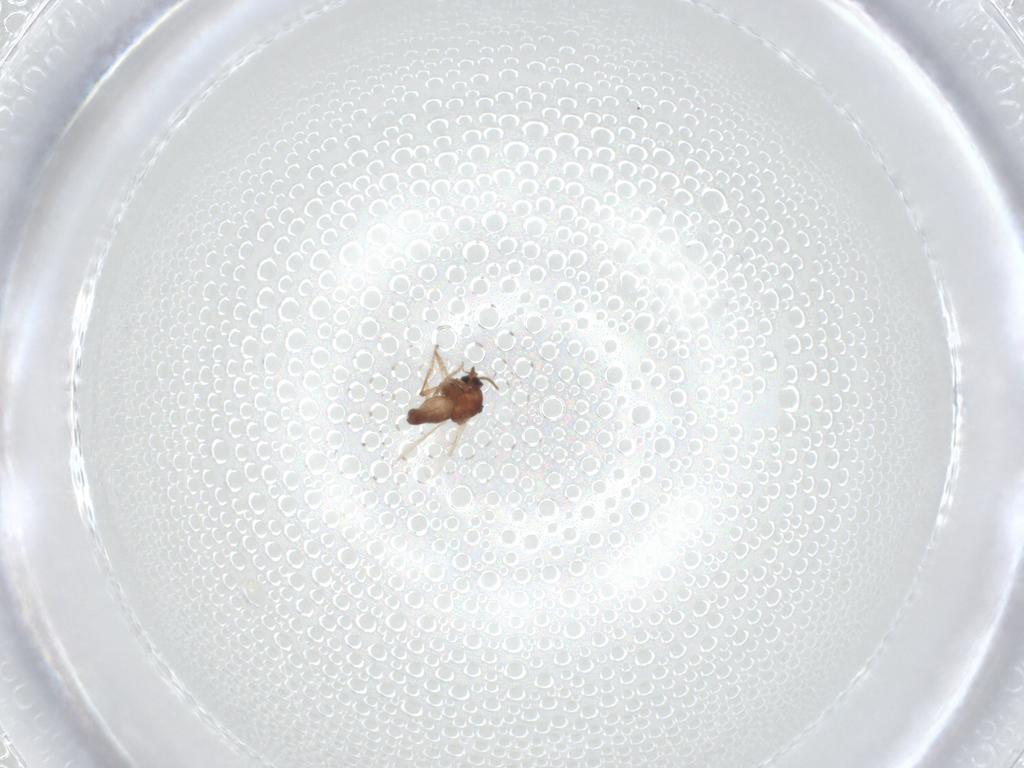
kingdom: Animalia
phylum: Arthropoda
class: Insecta
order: Diptera
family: Ceratopogonidae
